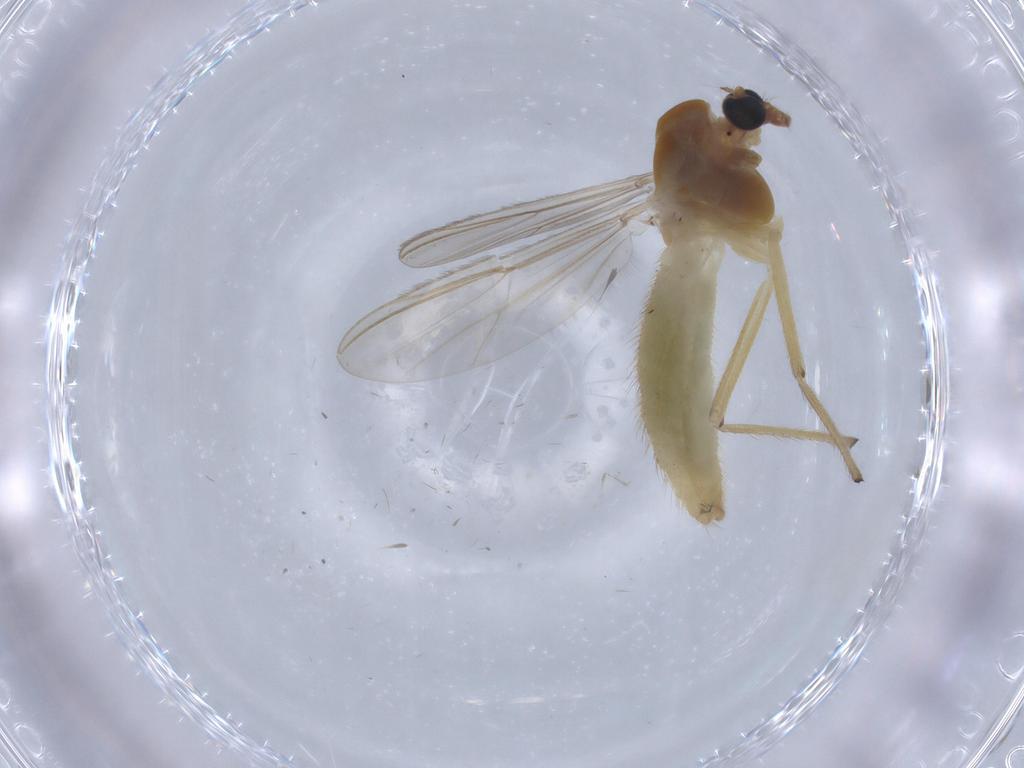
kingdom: Animalia
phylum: Arthropoda
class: Insecta
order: Diptera
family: Chironomidae
